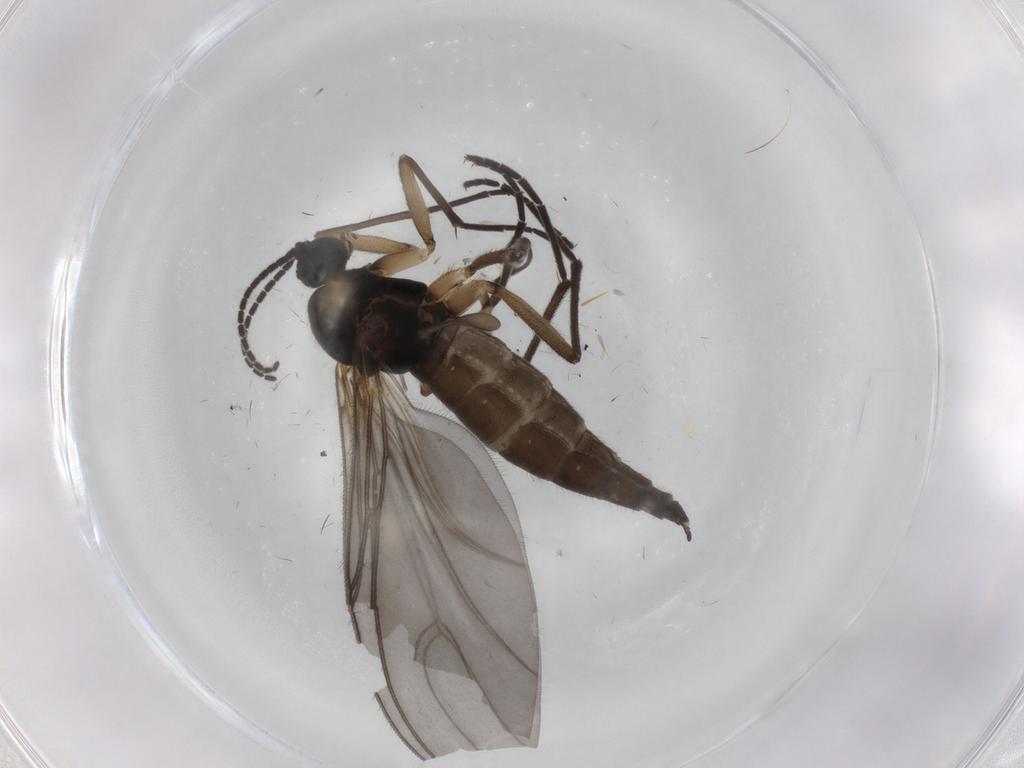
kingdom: Animalia
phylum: Arthropoda
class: Insecta
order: Diptera
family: Sciaridae
